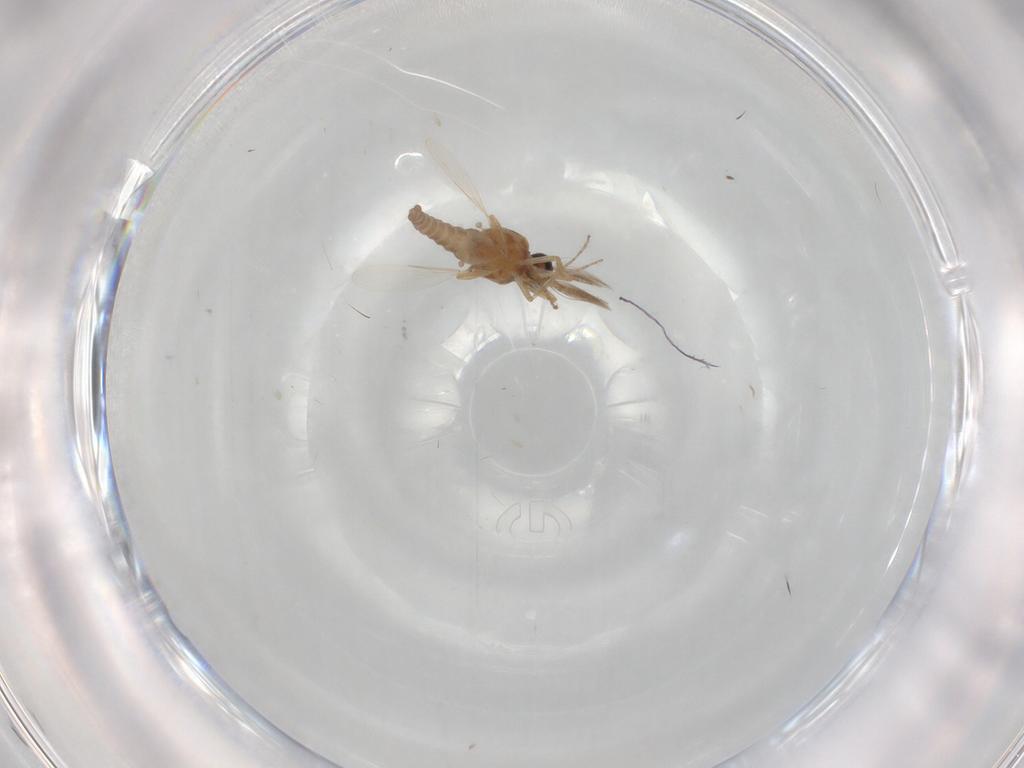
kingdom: Animalia
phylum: Arthropoda
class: Insecta
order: Diptera
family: Ceratopogonidae
